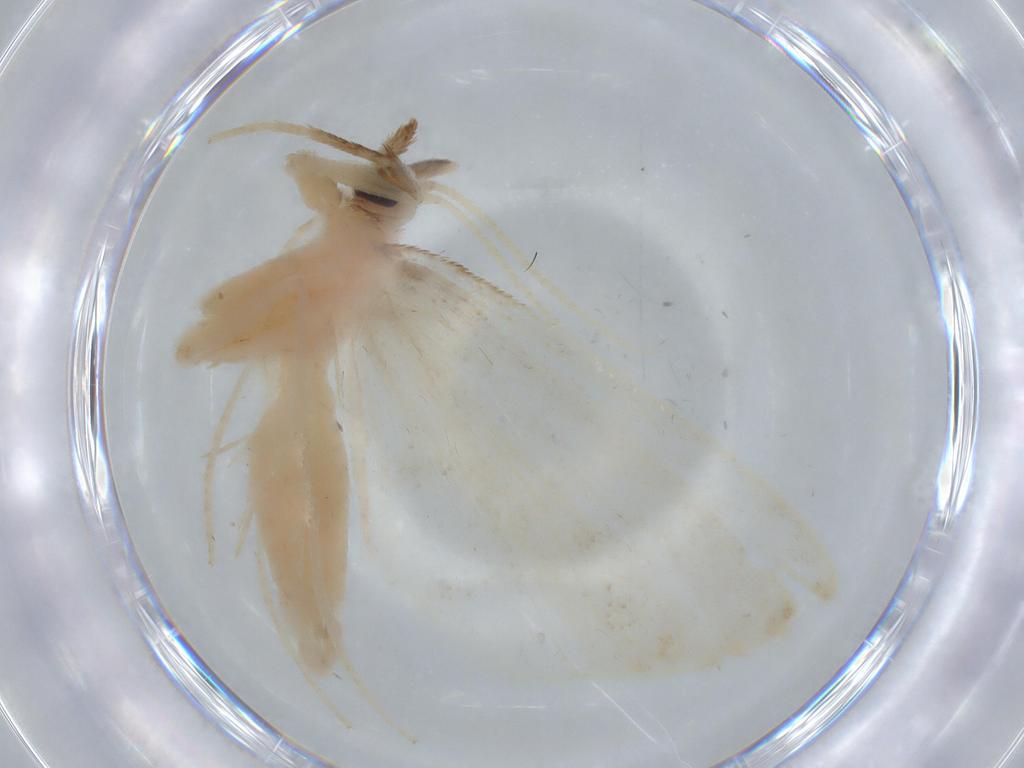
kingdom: Animalia
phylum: Arthropoda
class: Insecta
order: Lepidoptera
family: Crambidae
